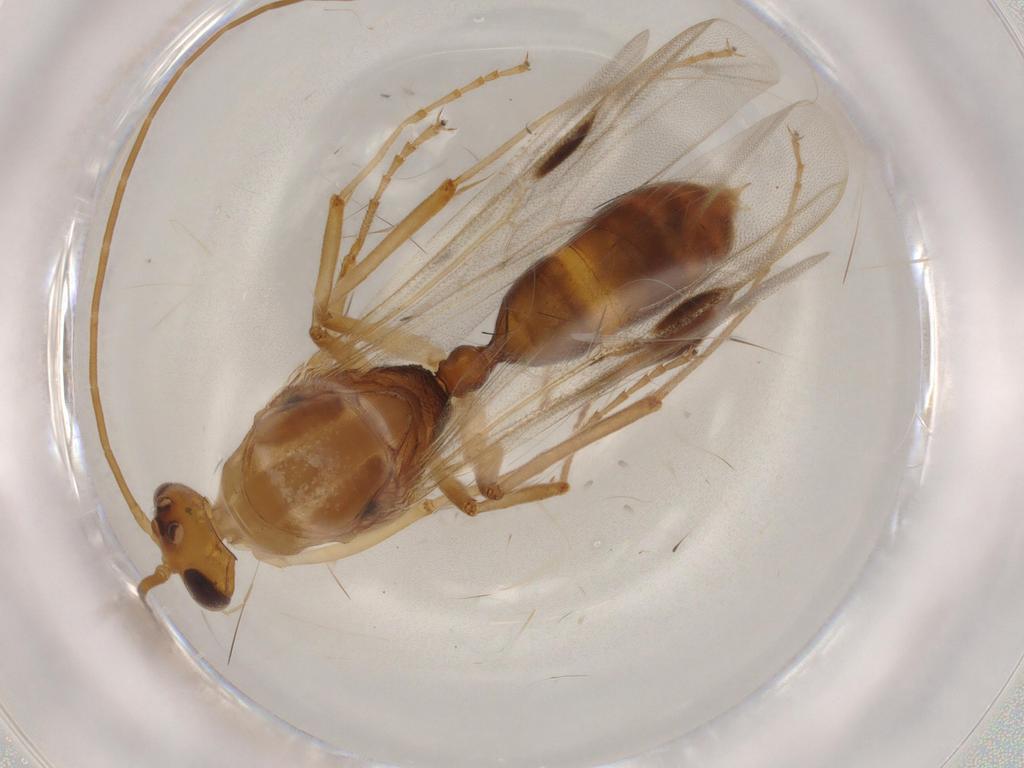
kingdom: Animalia
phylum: Arthropoda
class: Insecta
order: Hymenoptera
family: Formicidae
